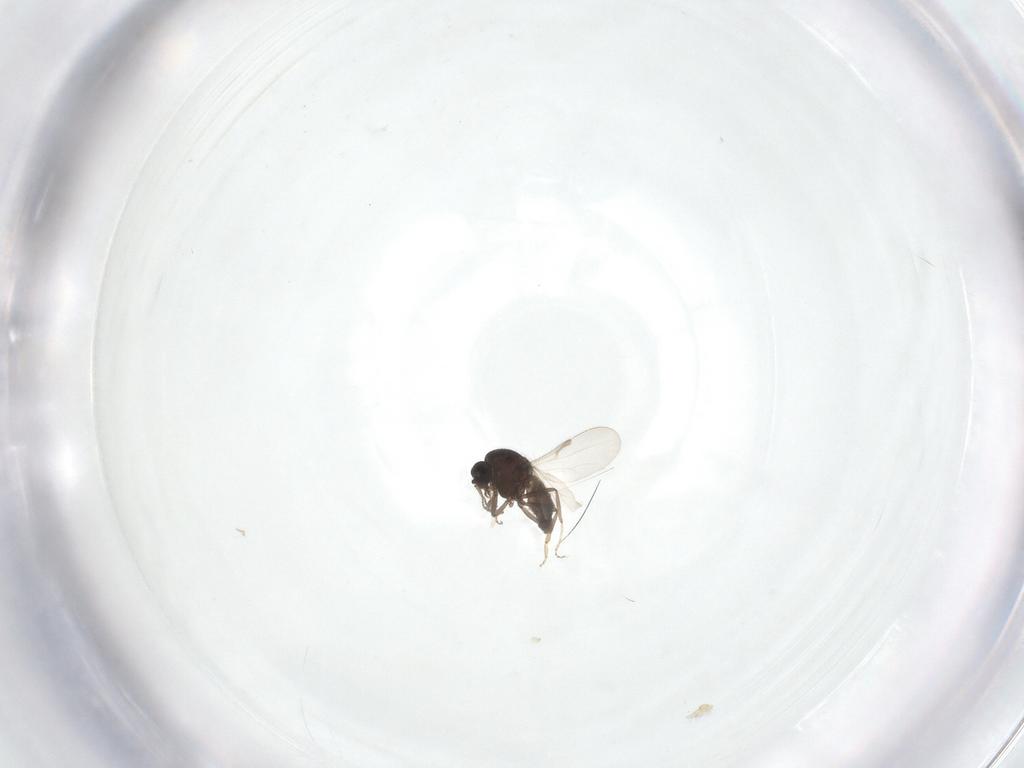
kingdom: Animalia
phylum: Arthropoda
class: Insecta
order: Diptera
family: Ceratopogonidae
